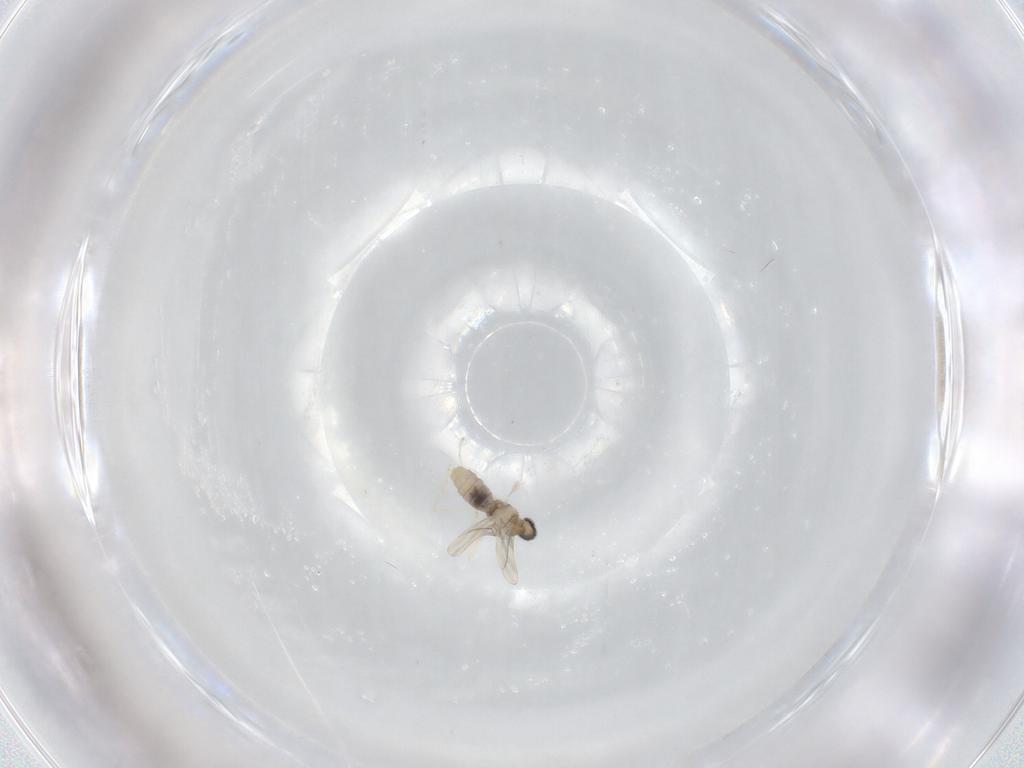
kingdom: Animalia
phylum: Arthropoda
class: Insecta
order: Diptera
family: Cecidomyiidae
